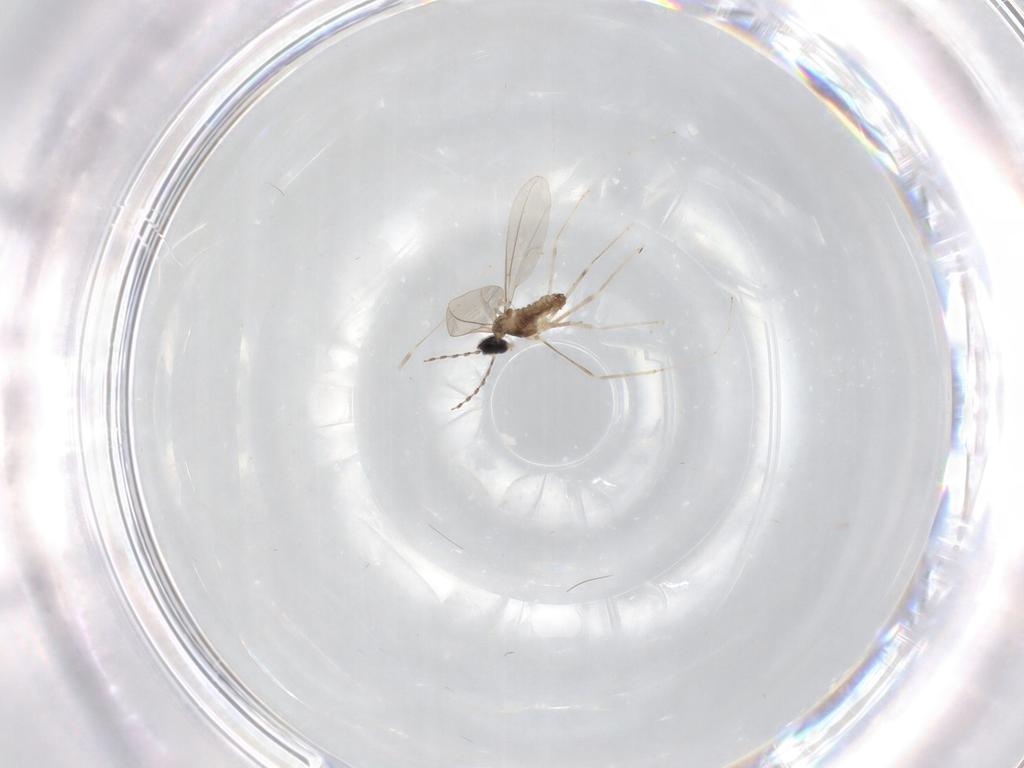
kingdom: Animalia
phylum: Arthropoda
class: Insecta
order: Diptera
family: Cecidomyiidae
